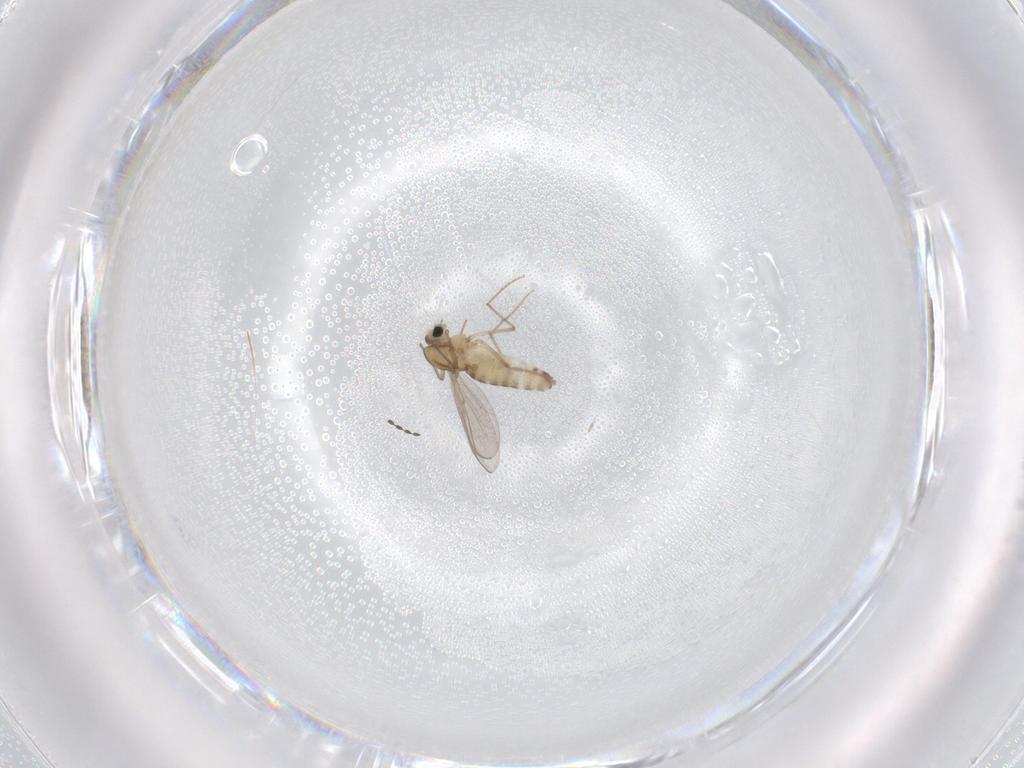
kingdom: Animalia
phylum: Arthropoda
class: Insecta
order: Diptera
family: Cecidomyiidae
